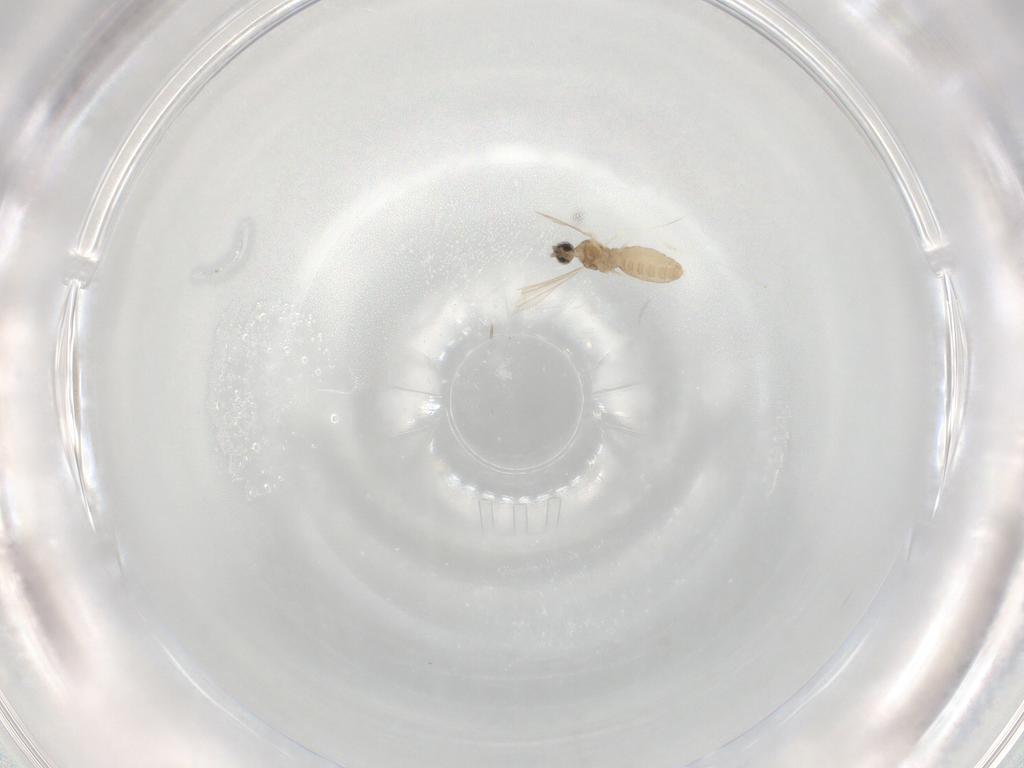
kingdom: Animalia
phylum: Arthropoda
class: Insecta
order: Diptera
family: Cecidomyiidae
